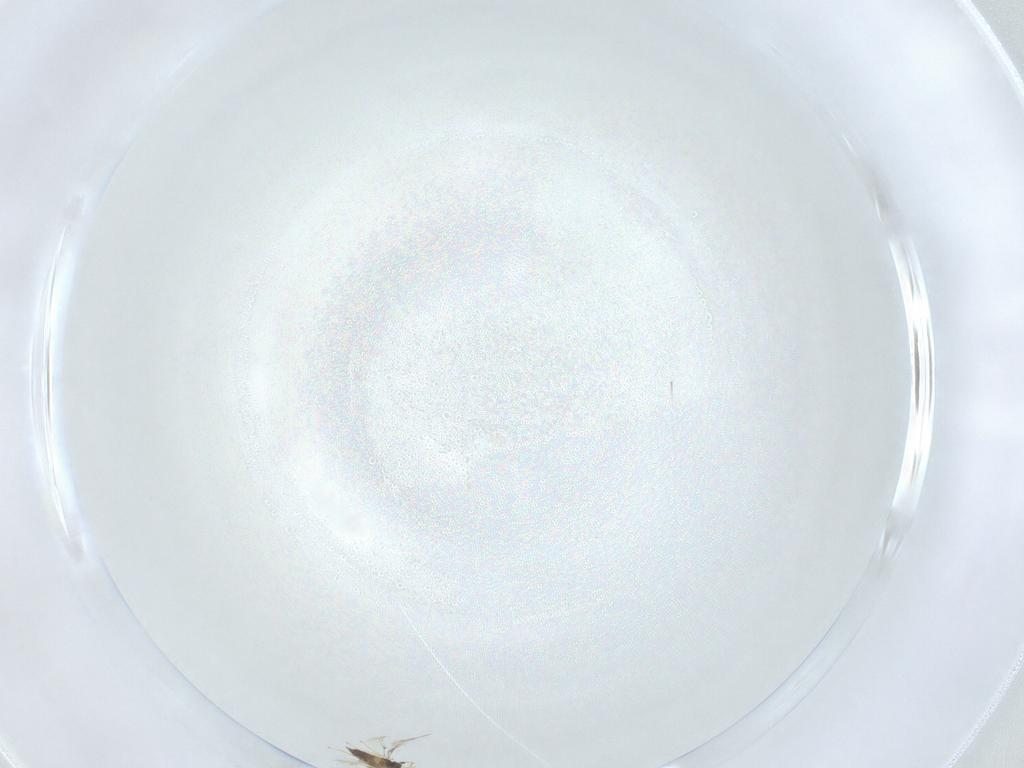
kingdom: Animalia
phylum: Arthropoda
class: Insecta
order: Hymenoptera
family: Mymaridae
